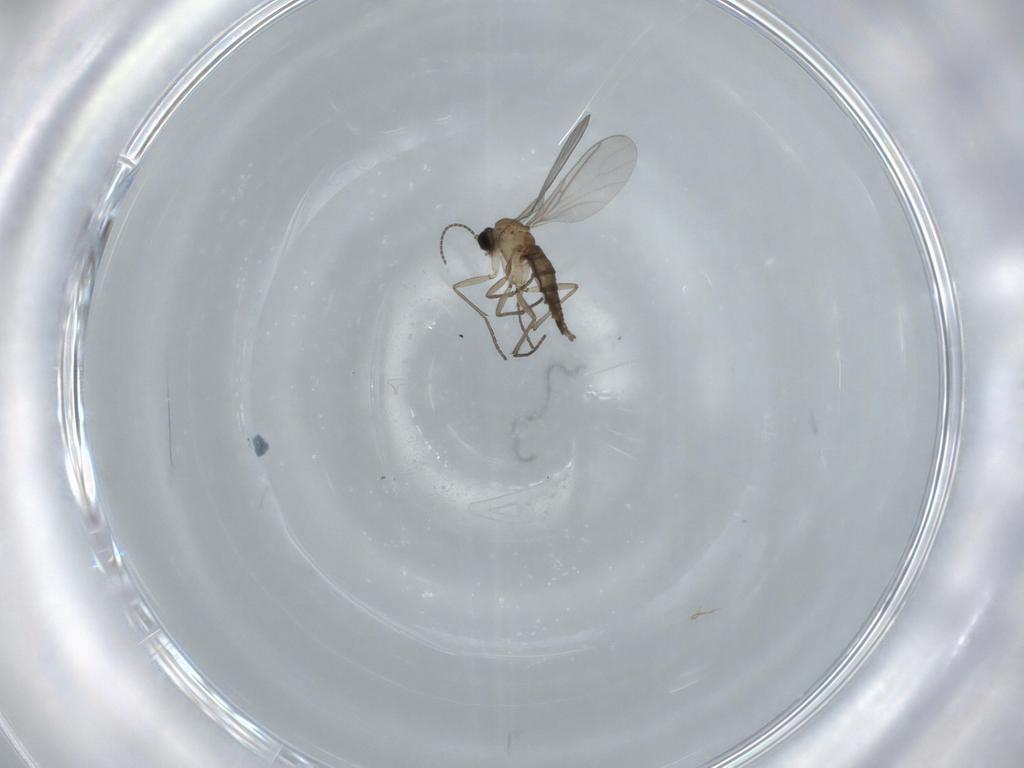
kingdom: Animalia
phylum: Arthropoda
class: Insecta
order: Diptera
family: Sciaridae
